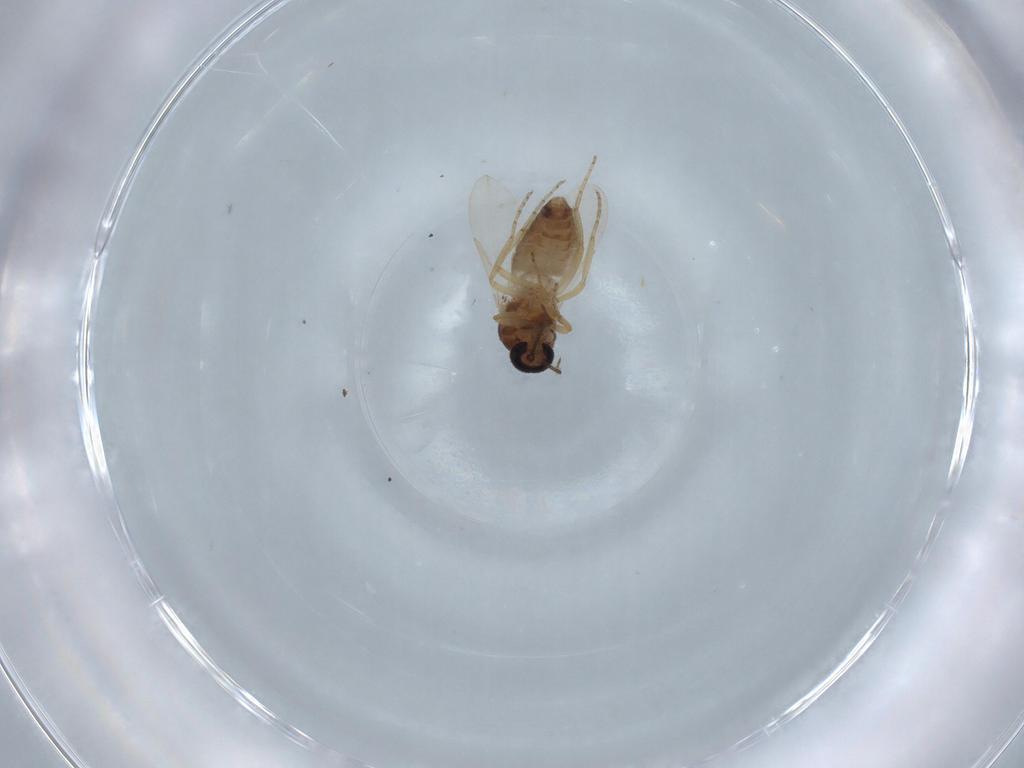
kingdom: Animalia
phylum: Arthropoda
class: Insecta
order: Diptera
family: Ceratopogonidae
